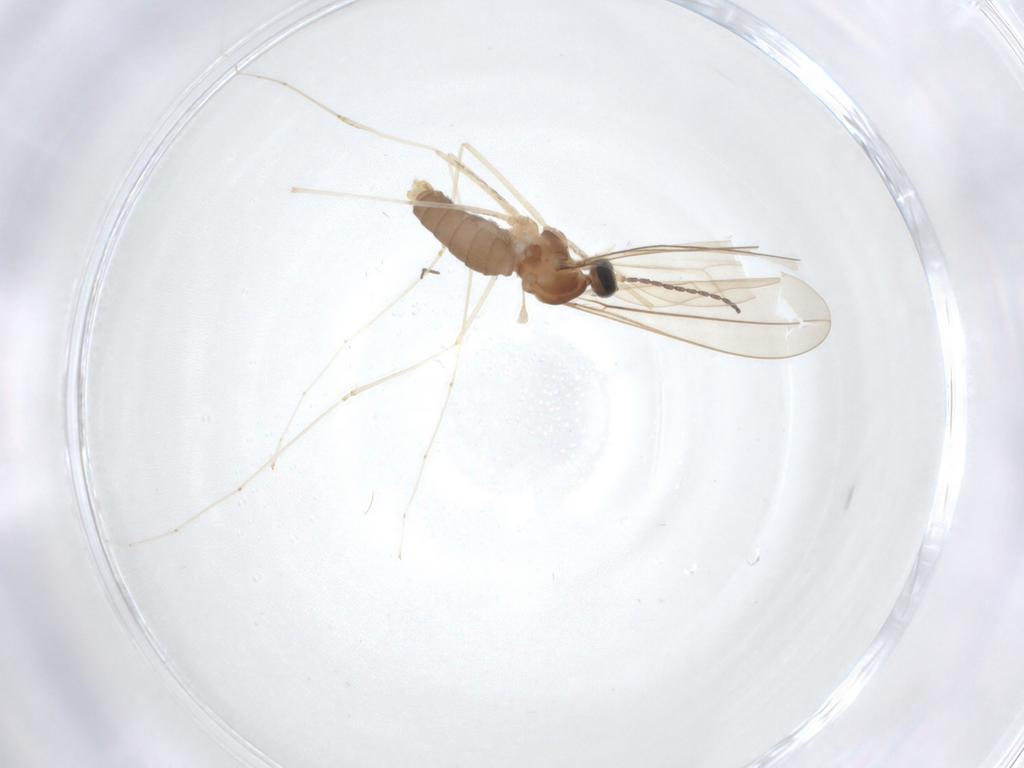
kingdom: Animalia
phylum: Arthropoda
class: Insecta
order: Diptera
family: Cecidomyiidae
